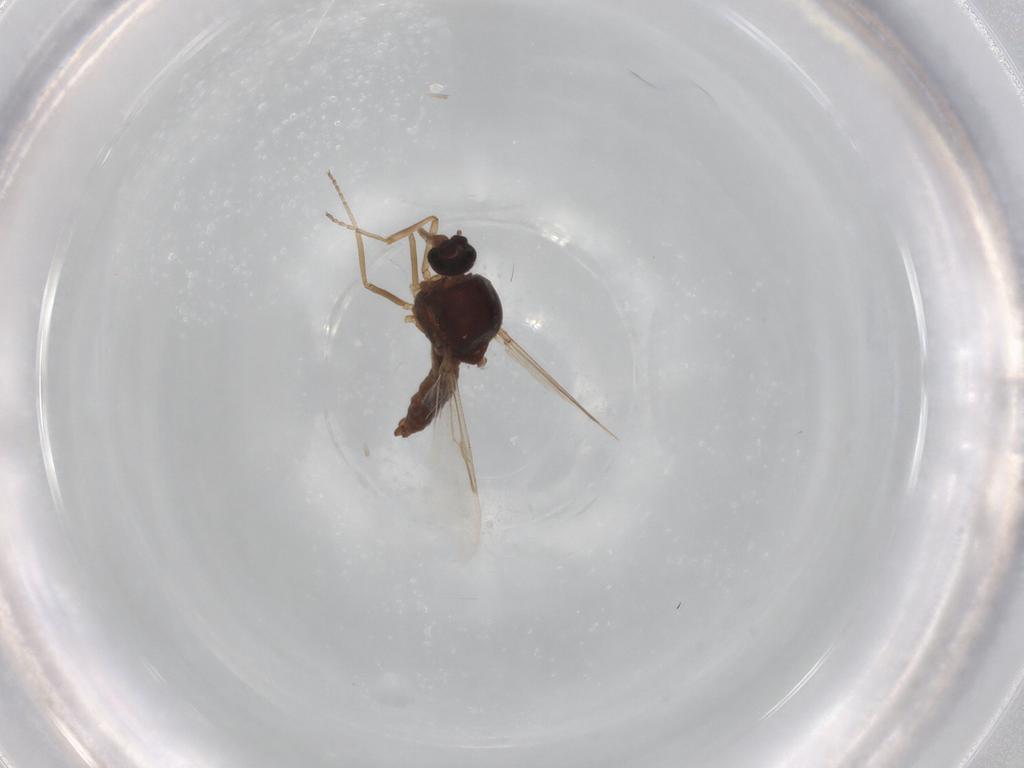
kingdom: Animalia
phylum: Arthropoda
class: Insecta
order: Diptera
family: Ceratopogonidae
